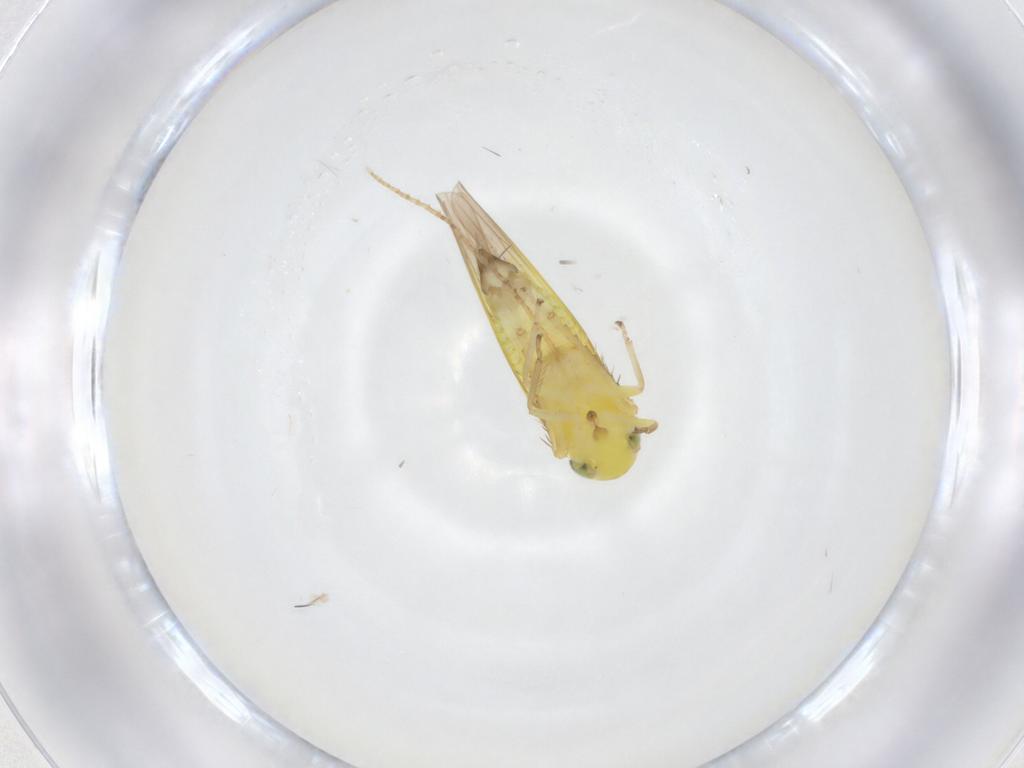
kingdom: Animalia
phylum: Arthropoda
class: Insecta
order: Hemiptera
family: Cicadellidae
